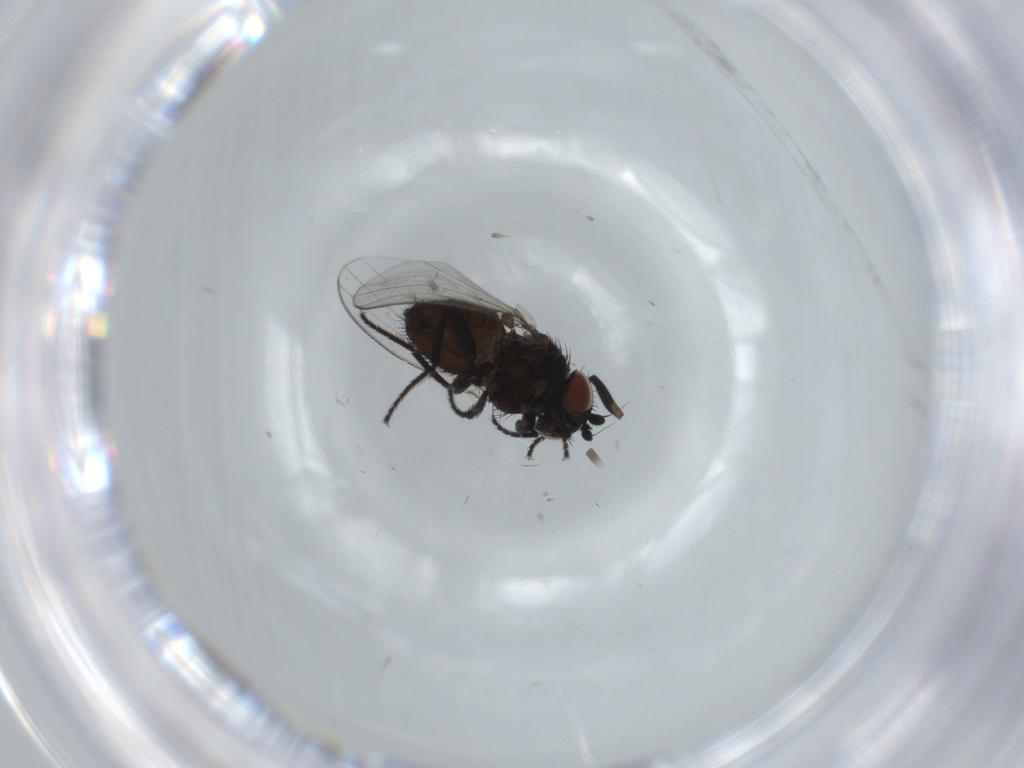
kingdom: Animalia
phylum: Arthropoda
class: Insecta
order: Diptera
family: Milichiidae
